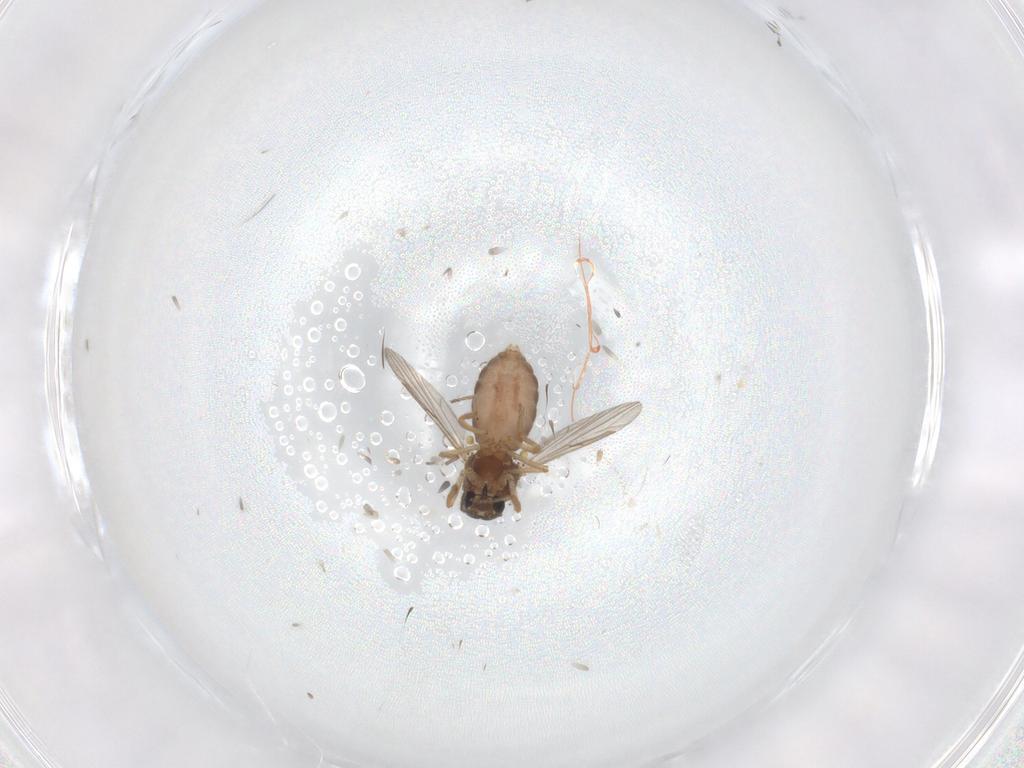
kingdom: Animalia
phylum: Arthropoda
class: Insecta
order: Diptera
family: Ceratopogonidae
